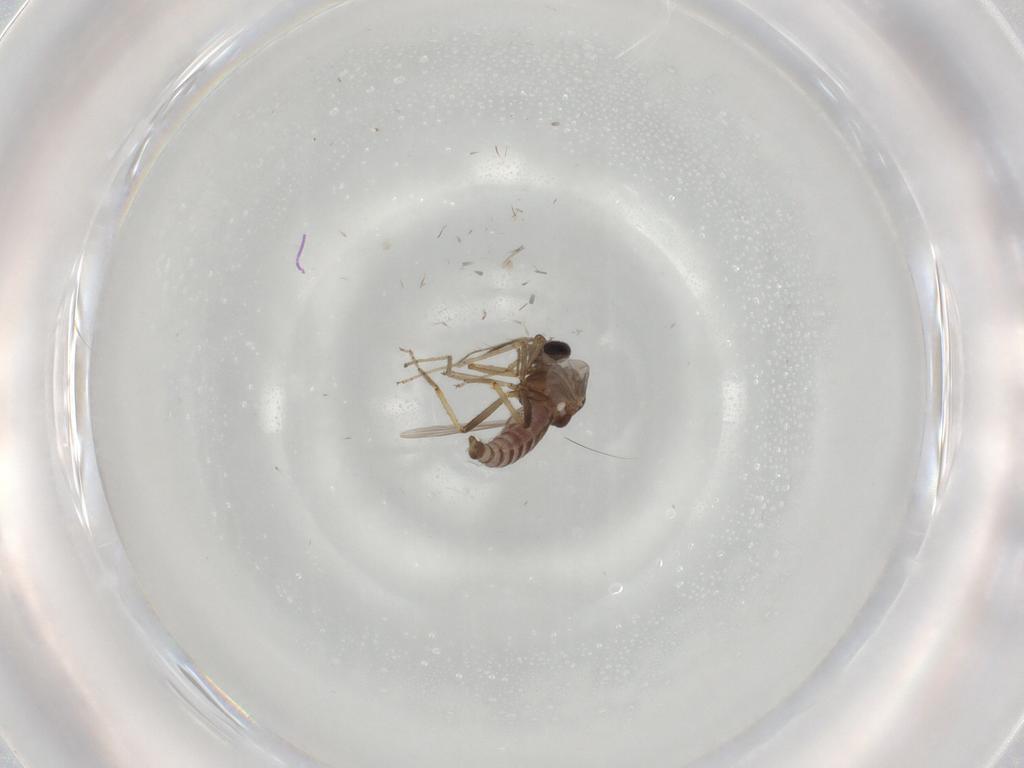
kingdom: Animalia
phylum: Arthropoda
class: Insecta
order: Diptera
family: Ceratopogonidae
